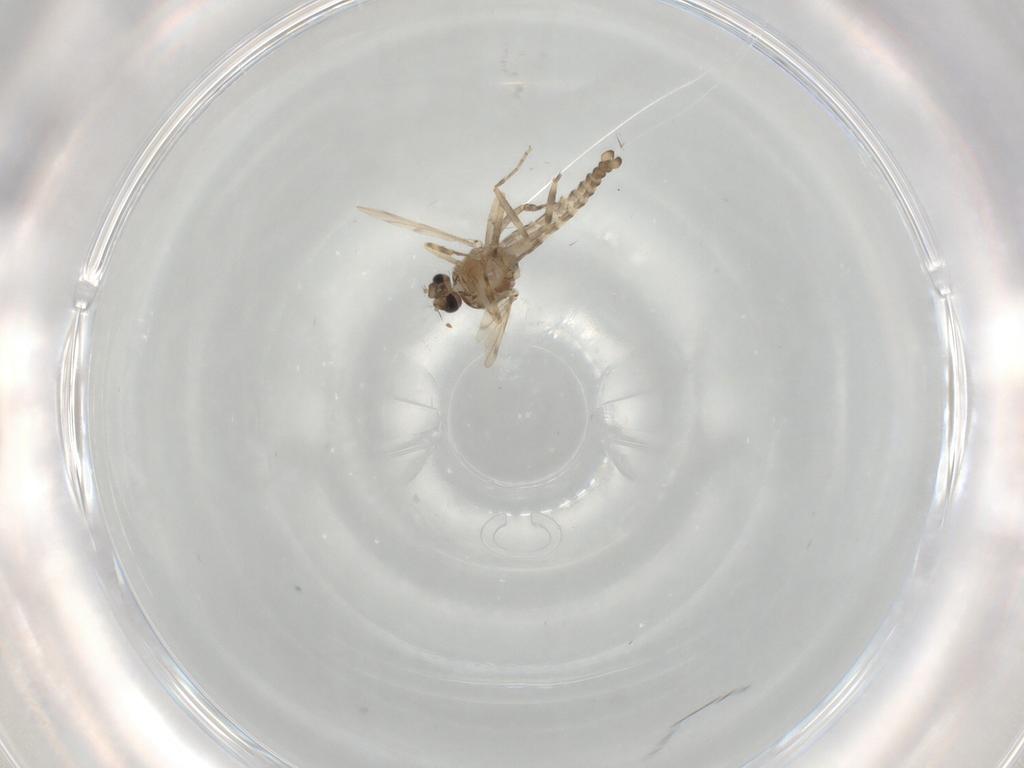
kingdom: Animalia
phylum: Arthropoda
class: Insecta
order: Diptera
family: Ceratopogonidae
